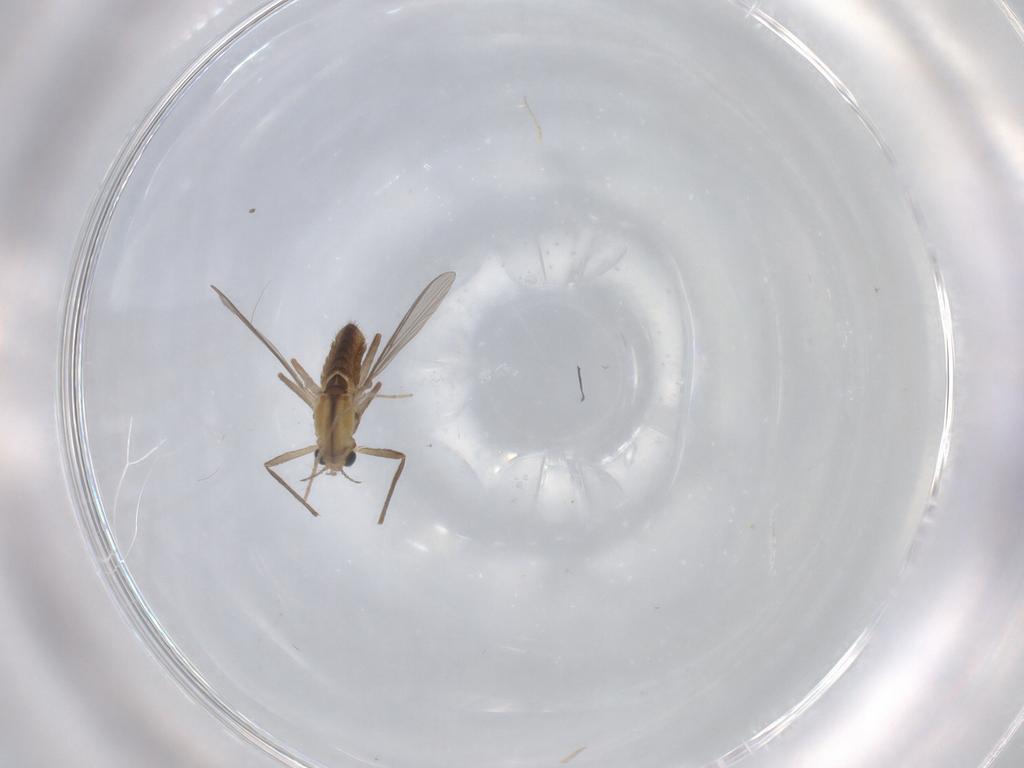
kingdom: Animalia
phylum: Arthropoda
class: Insecta
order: Diptera
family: Chironomidae
